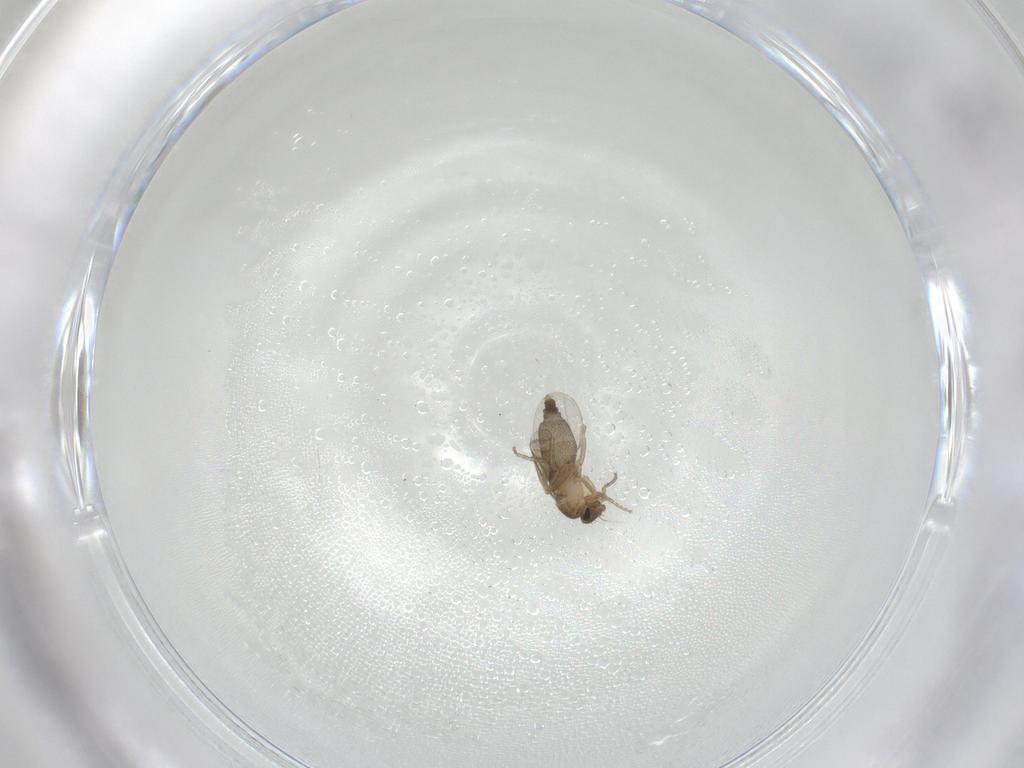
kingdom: Animalia
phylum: Arthropoda
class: Insecta
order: Diptera
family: Phoridae
